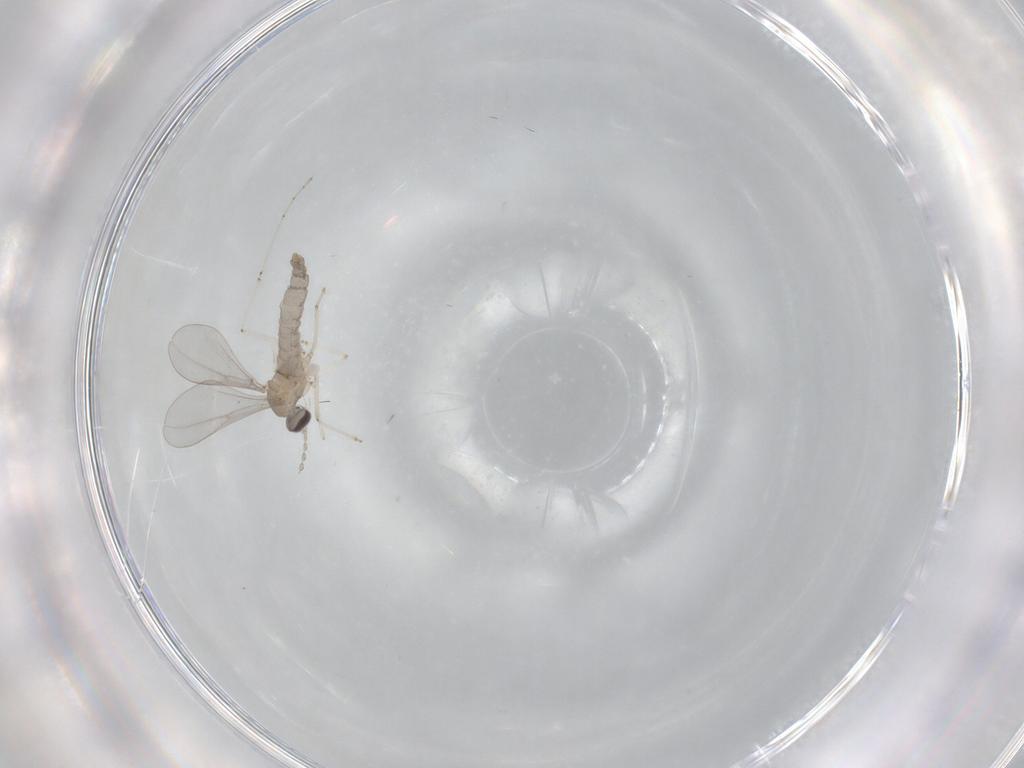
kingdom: Animalia
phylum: Arthropoda
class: Insecta
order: Diptera
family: Cecidomyiidae
